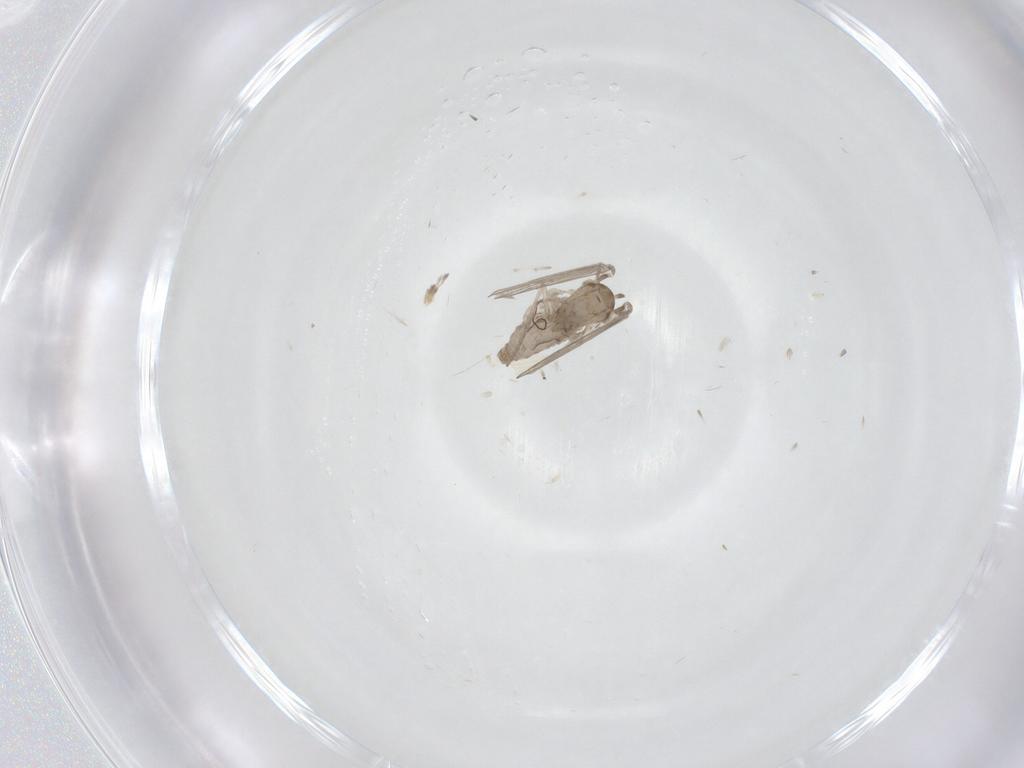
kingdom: Animalia
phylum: Arthropoda
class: Insecta
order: Diptera
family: Psychodidae
